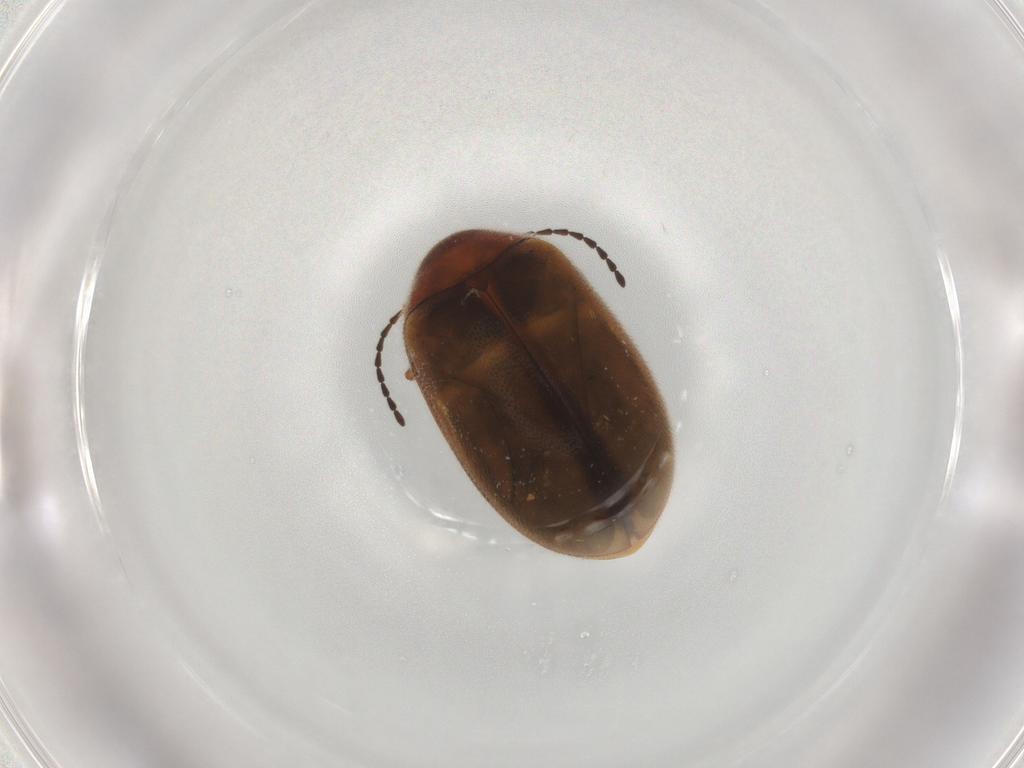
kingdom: Animalia
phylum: Arthropoda
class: Insecta
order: Coleoptera
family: Scirtidae
